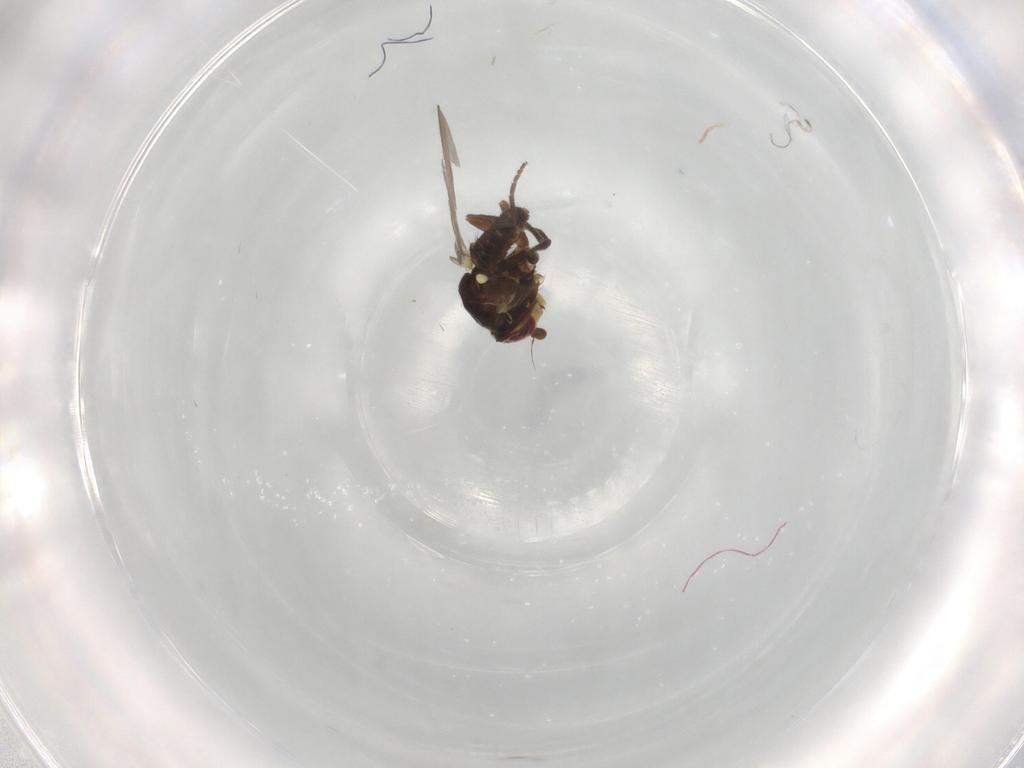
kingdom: Animalia
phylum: Arthropoda
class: Insecta
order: Diptera
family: Agromyzidae
